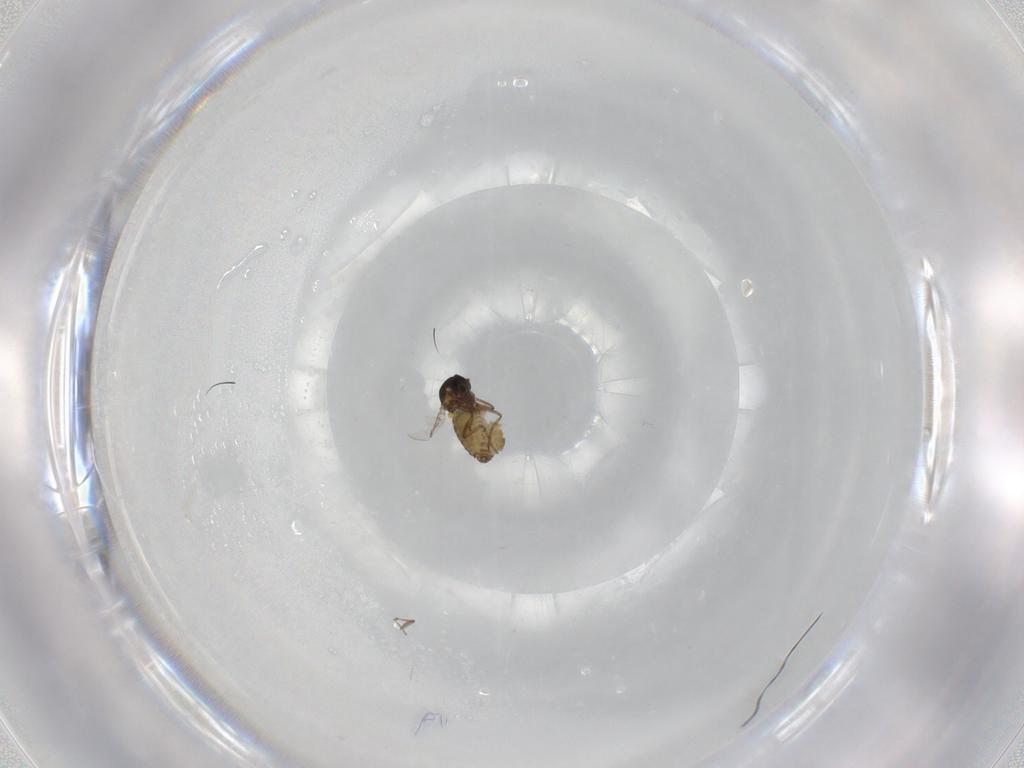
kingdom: Animalia
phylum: Arthropoda
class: Insecta
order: Diptera
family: Ceratopogonidae
